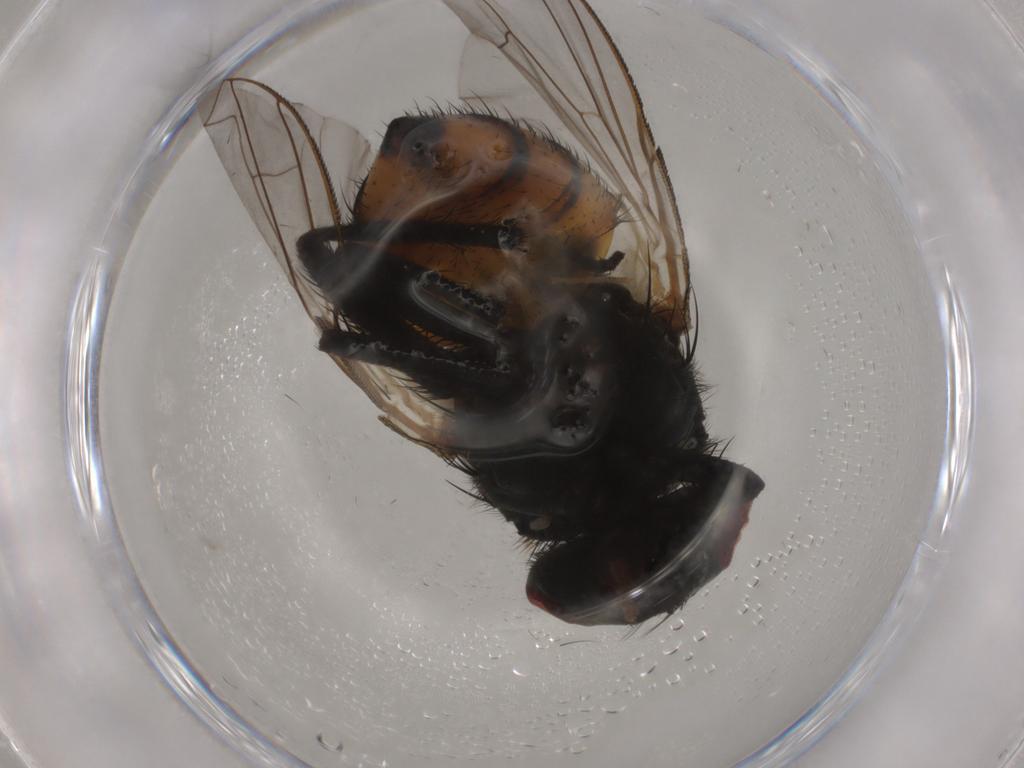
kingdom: Animalia
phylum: Arthropoda
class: Insecta
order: Diptera
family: Muscidae
